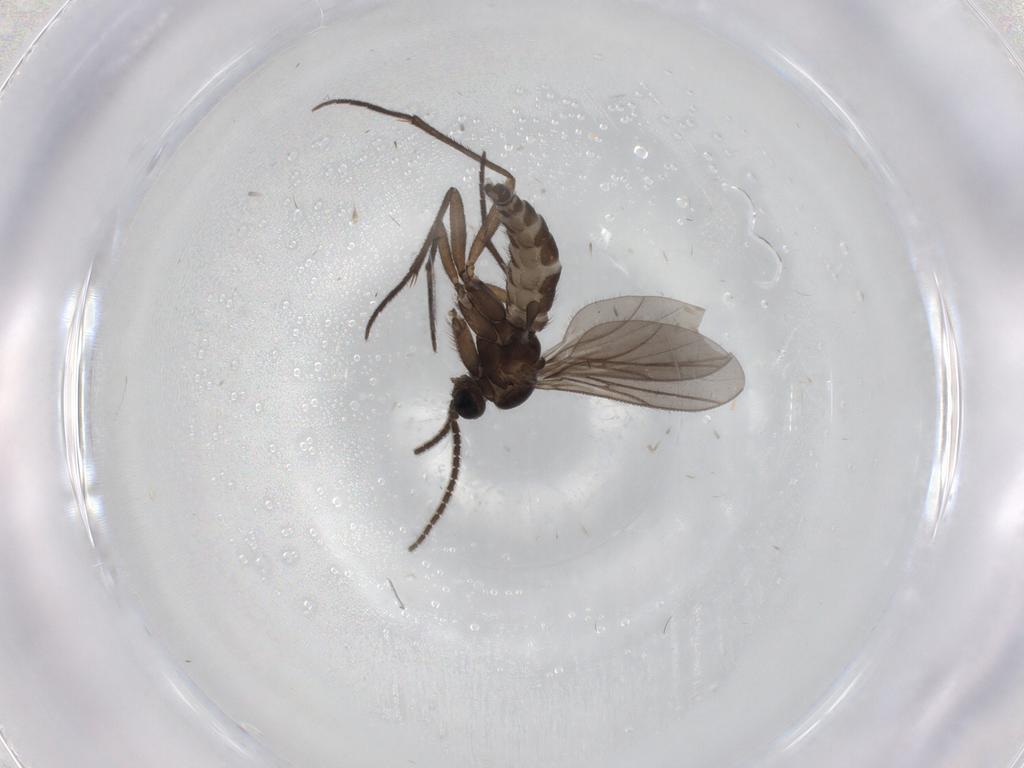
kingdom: Animalia
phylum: Arthropoda
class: Insecta
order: Diptera
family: Sciaridae
